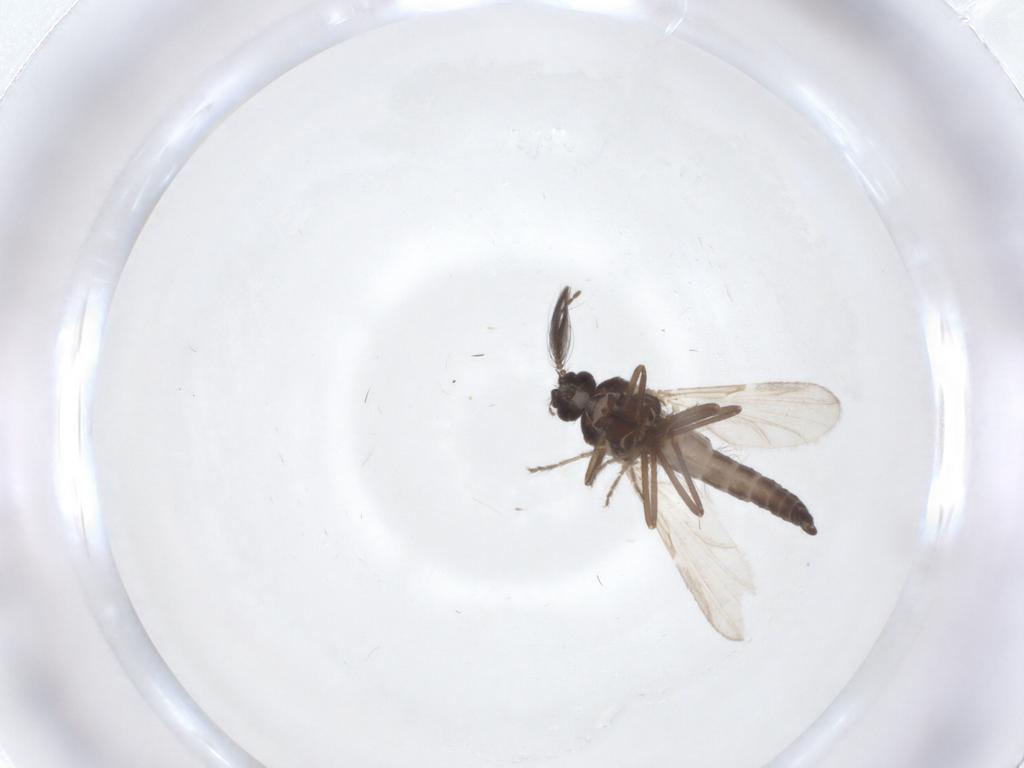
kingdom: Animalia
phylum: Arthropoda
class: Insecta
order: Diptera
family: Ceratopogonidae
